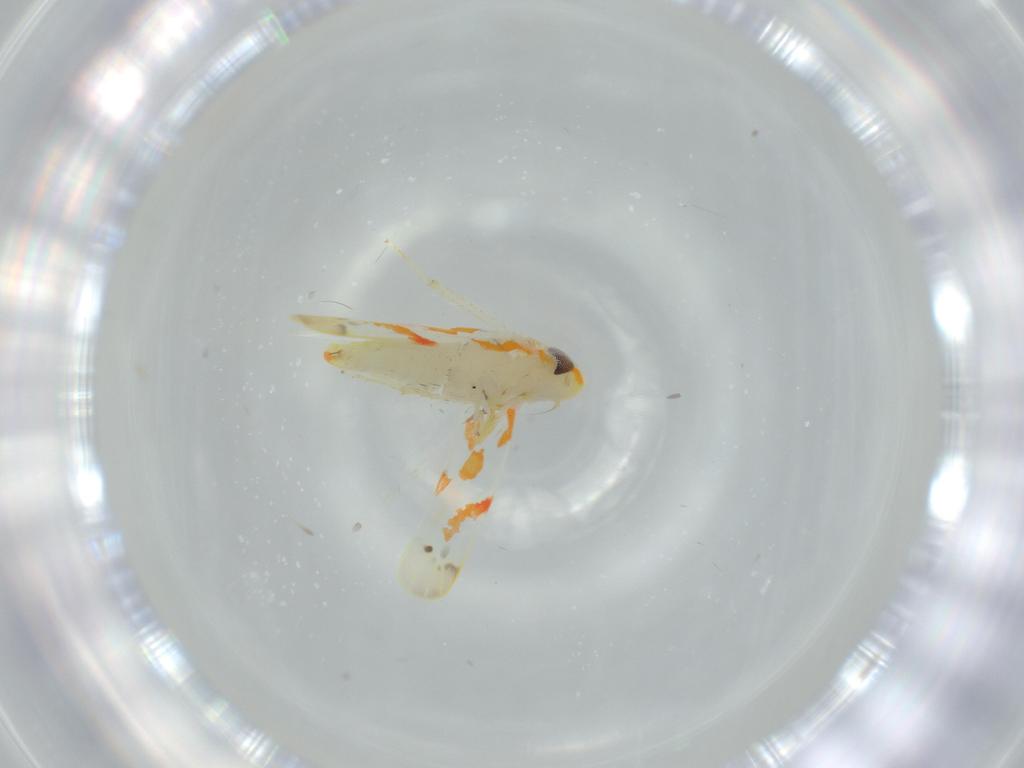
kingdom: Animalia
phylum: Arthropoda
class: Insecta
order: Hemiptera
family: Cicadellidae
